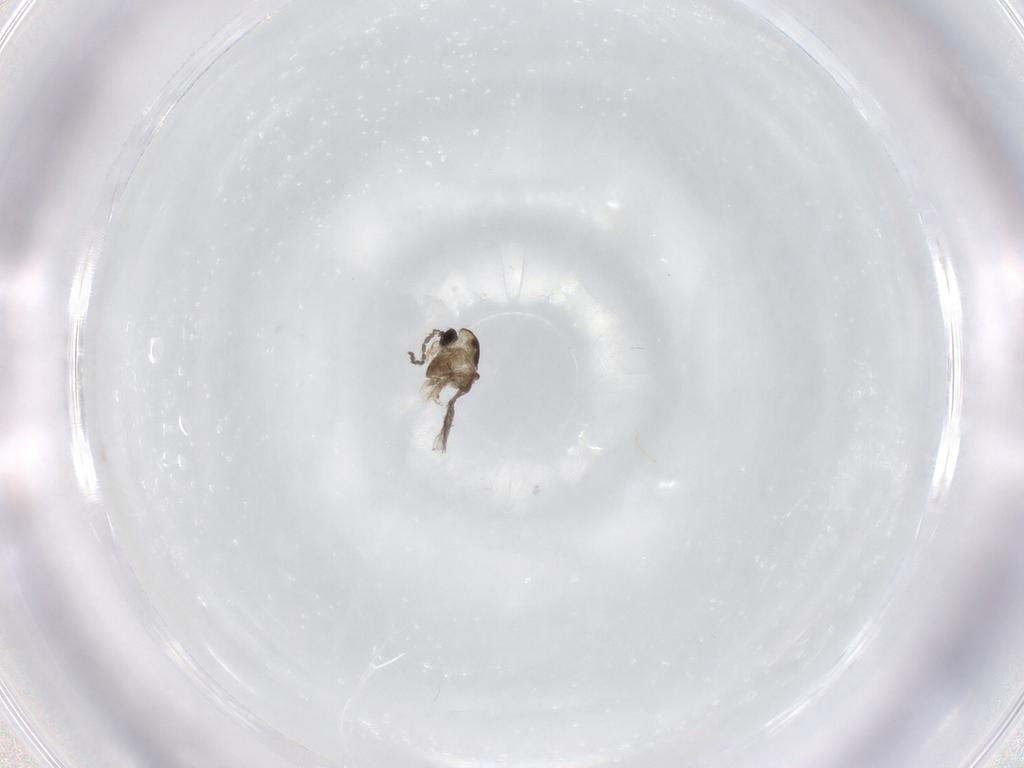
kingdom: Animalia
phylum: Arthropoda
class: Insecta
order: Diptera
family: Chironomidae
